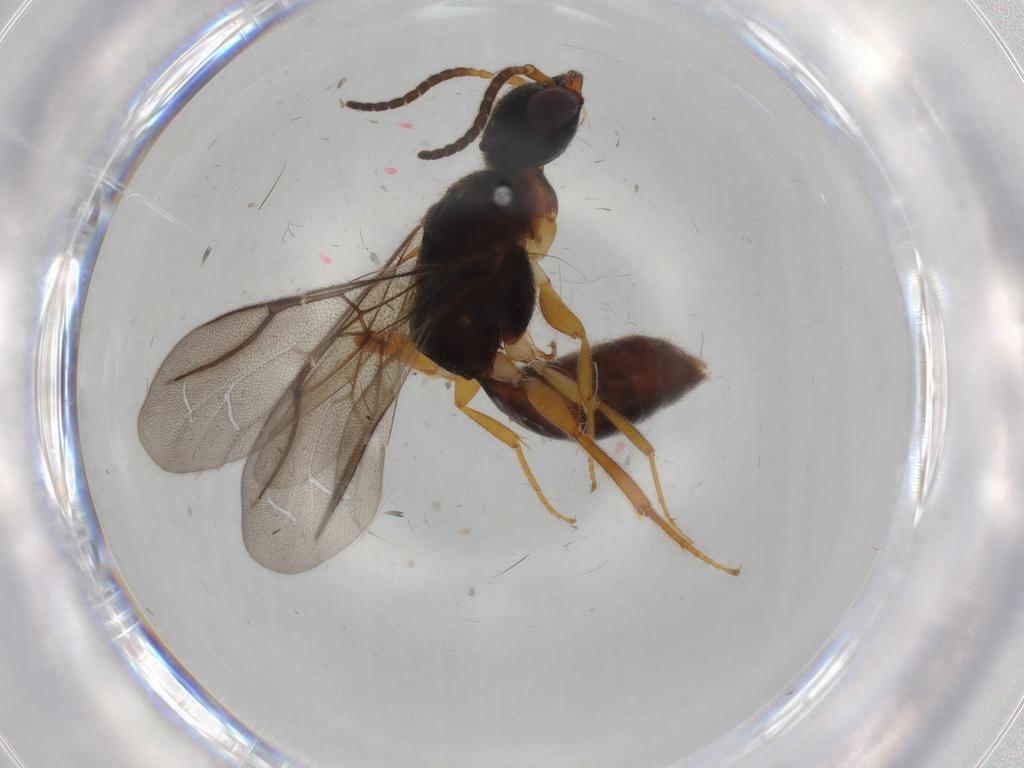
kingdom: Animalia
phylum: Arthropoda
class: Insecta
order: Hymenoptera
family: Bethylidae
